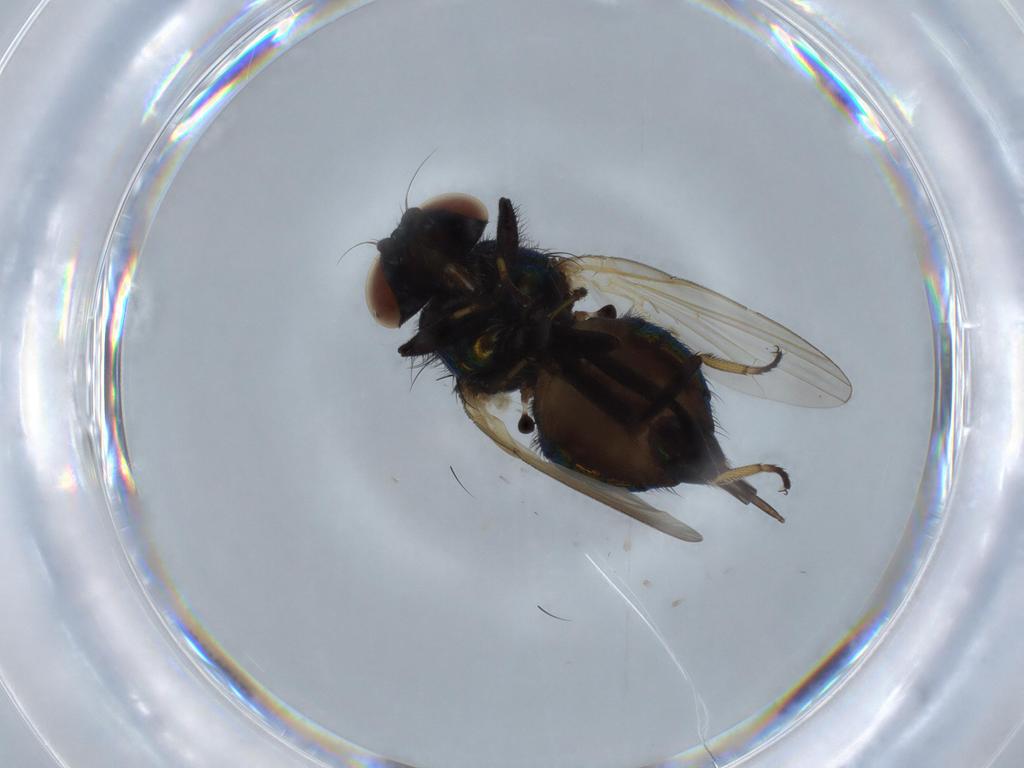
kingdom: Animalia
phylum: Arthropoda
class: Insecta
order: Diptera
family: Lonchaeidae
